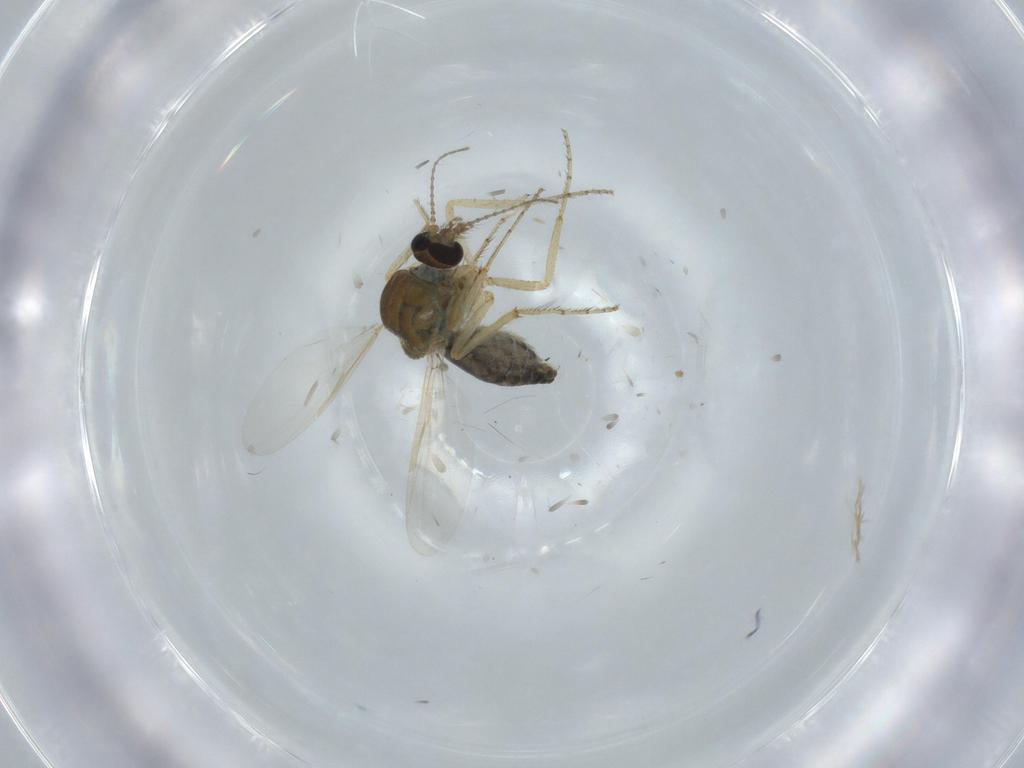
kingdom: Animalia
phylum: Arthropoda
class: Insecta
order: Diptera
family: Ceratopogonidae
